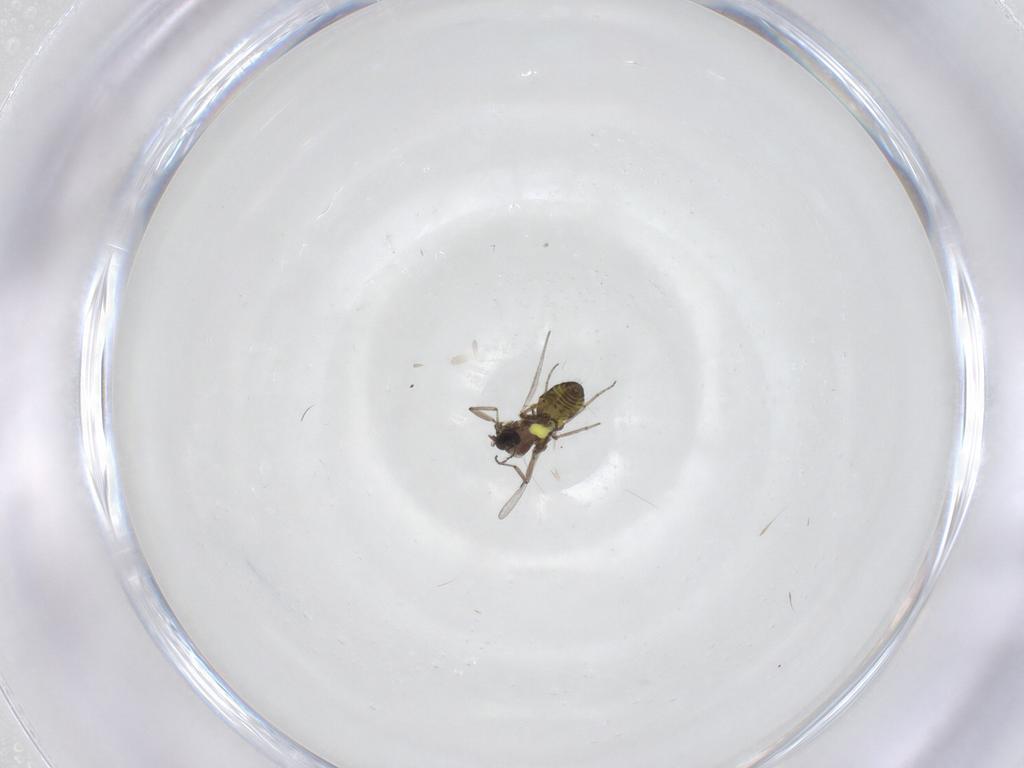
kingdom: Animalia
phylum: Arthropoda
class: Insecta
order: Diptera
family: Ceratopogonidae
